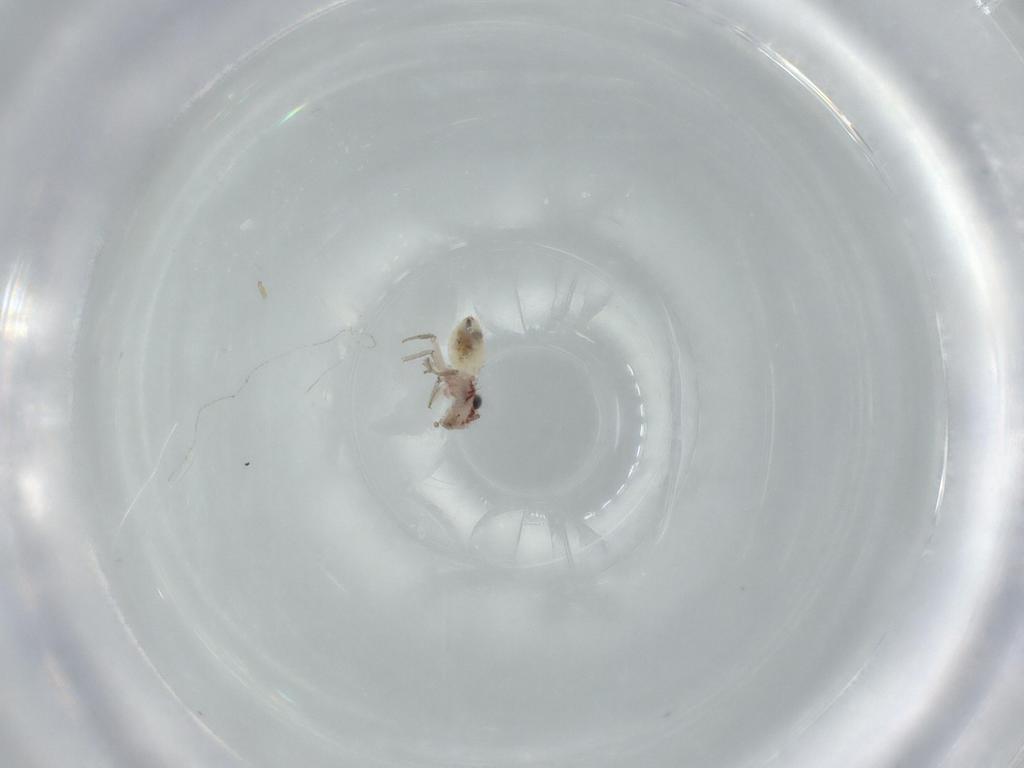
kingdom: Animalia
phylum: Arthropoda
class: Insecta
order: Psocodea
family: Lepidopsocidae
